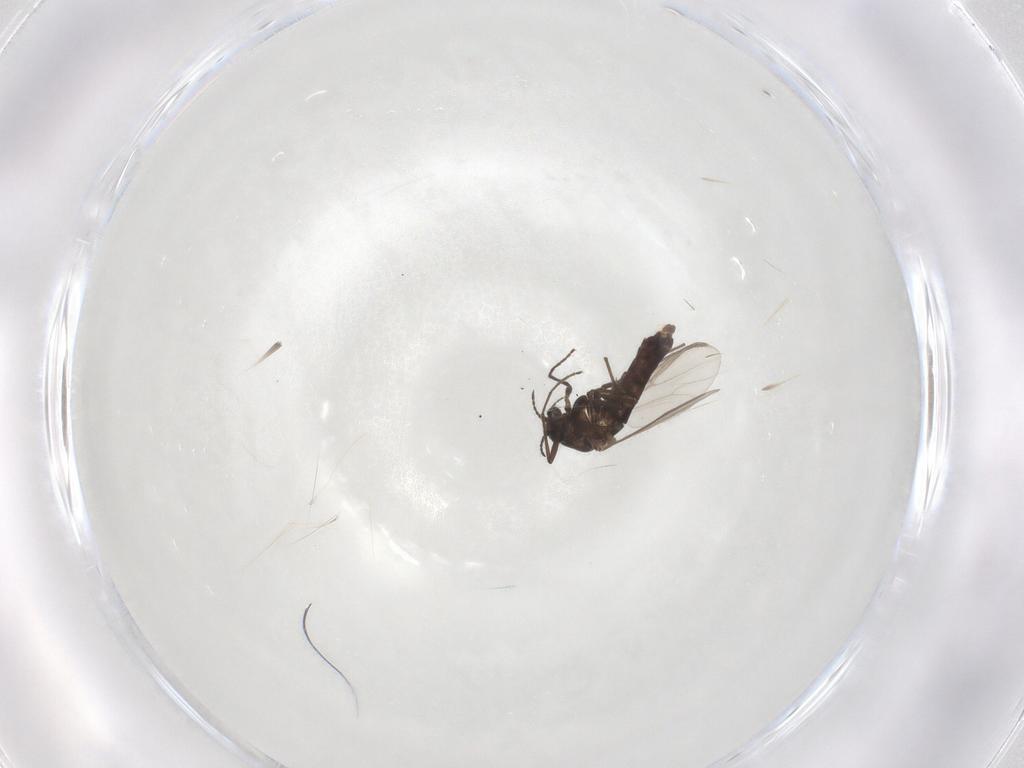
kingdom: Animalia
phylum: Arthropoda
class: Insecta
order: Diptera
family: Chironomidae
